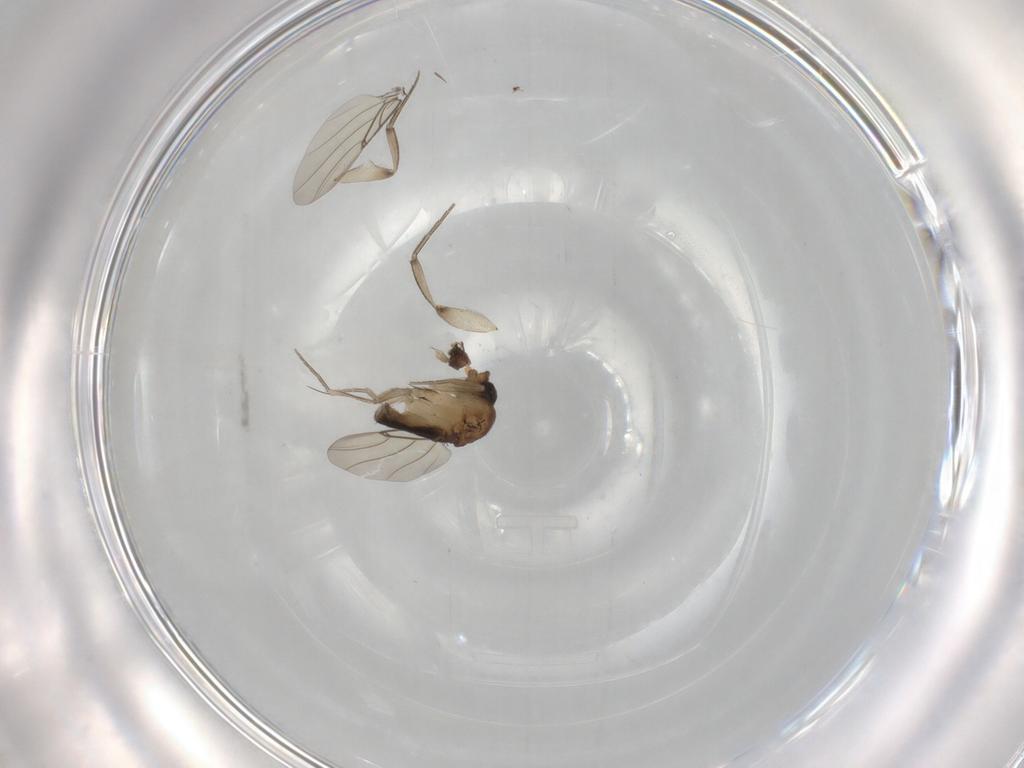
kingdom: Animalia
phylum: Arthropoda
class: Insecta
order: Diptera
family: Phoridae
